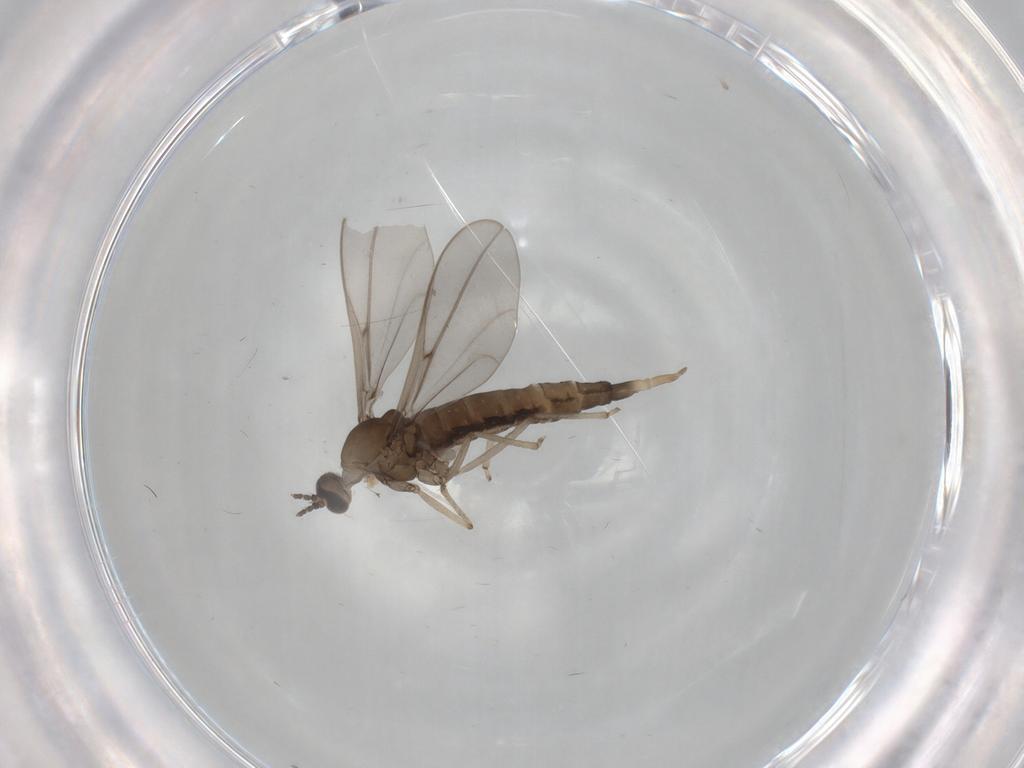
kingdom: Animalia
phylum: Arthropoda
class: Insecta
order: Diptera
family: Cecidomyiidae
